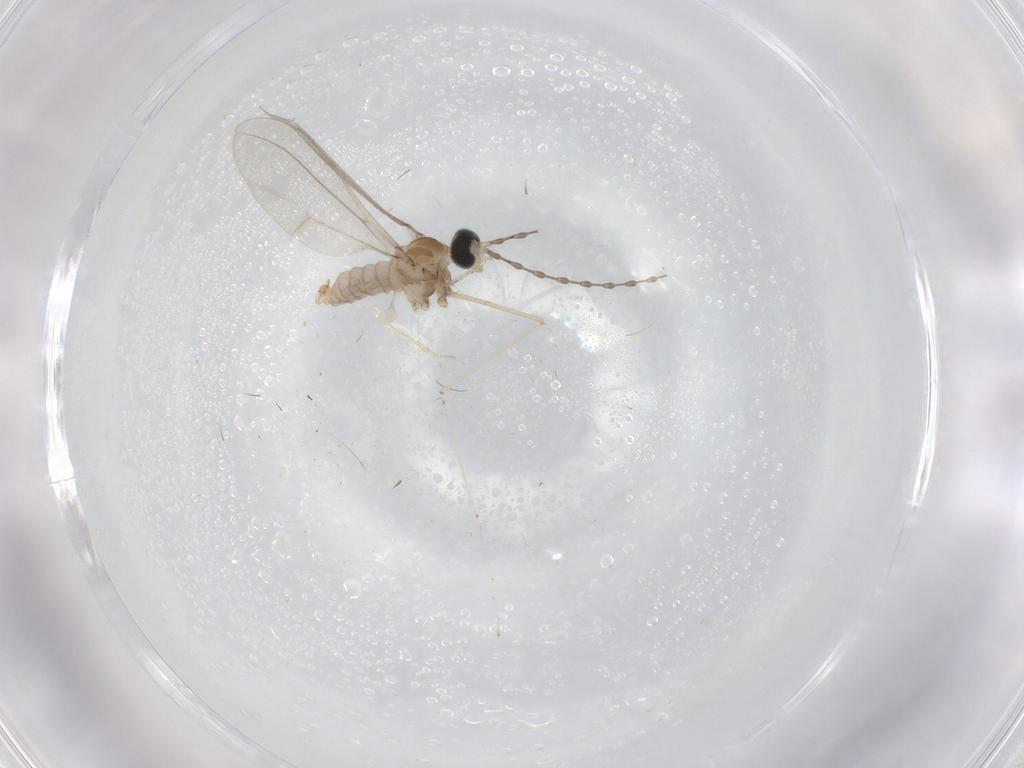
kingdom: Animalia
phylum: Arthropoda
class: Insecta
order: Diptera
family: Cecidomyiidae
